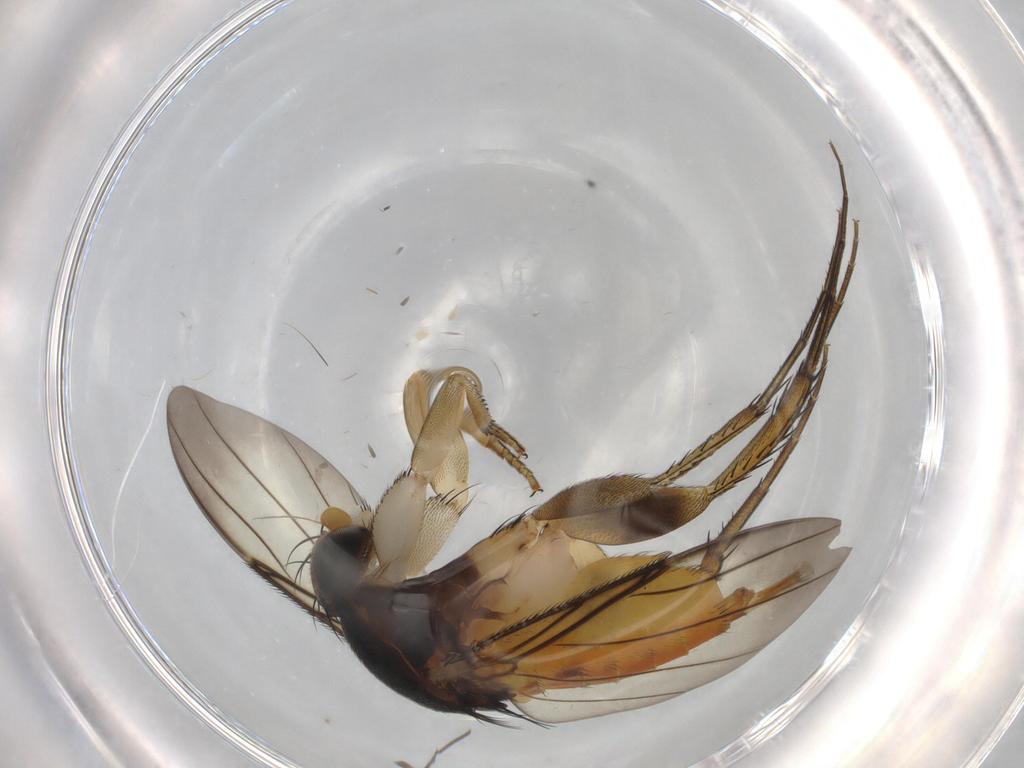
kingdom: Animalia
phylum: Arthropoda
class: Insecta
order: Diptera
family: Phoridae
